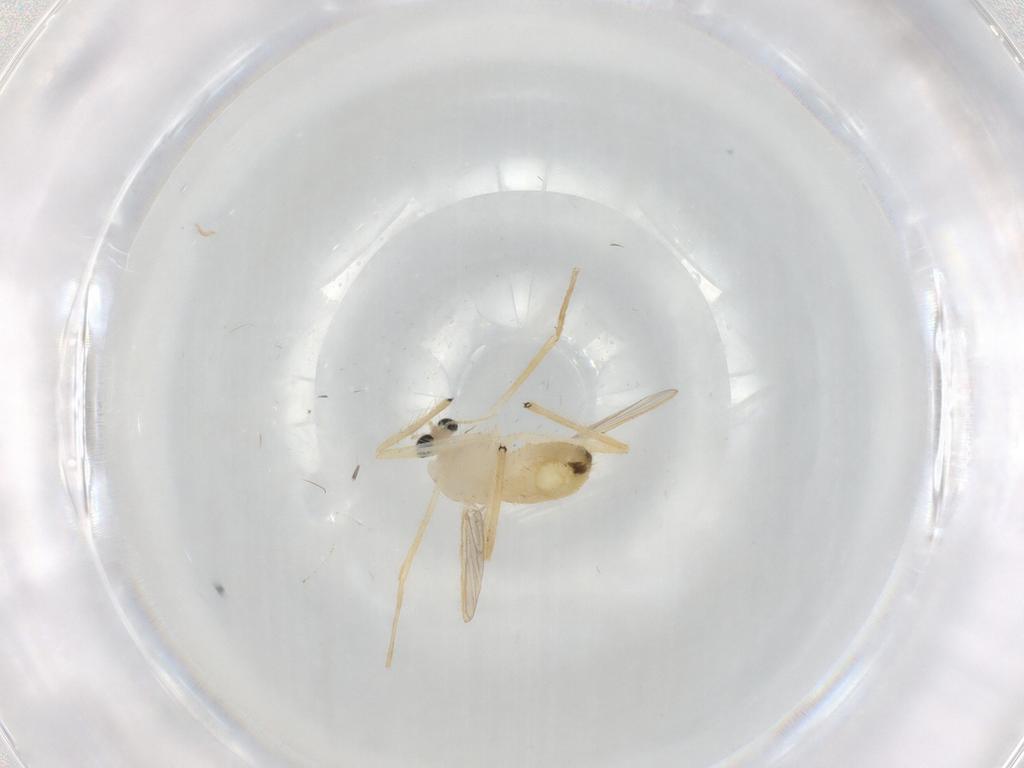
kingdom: Animalia
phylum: Arthropoda
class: Insecta
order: Diptera
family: Chironomidae
